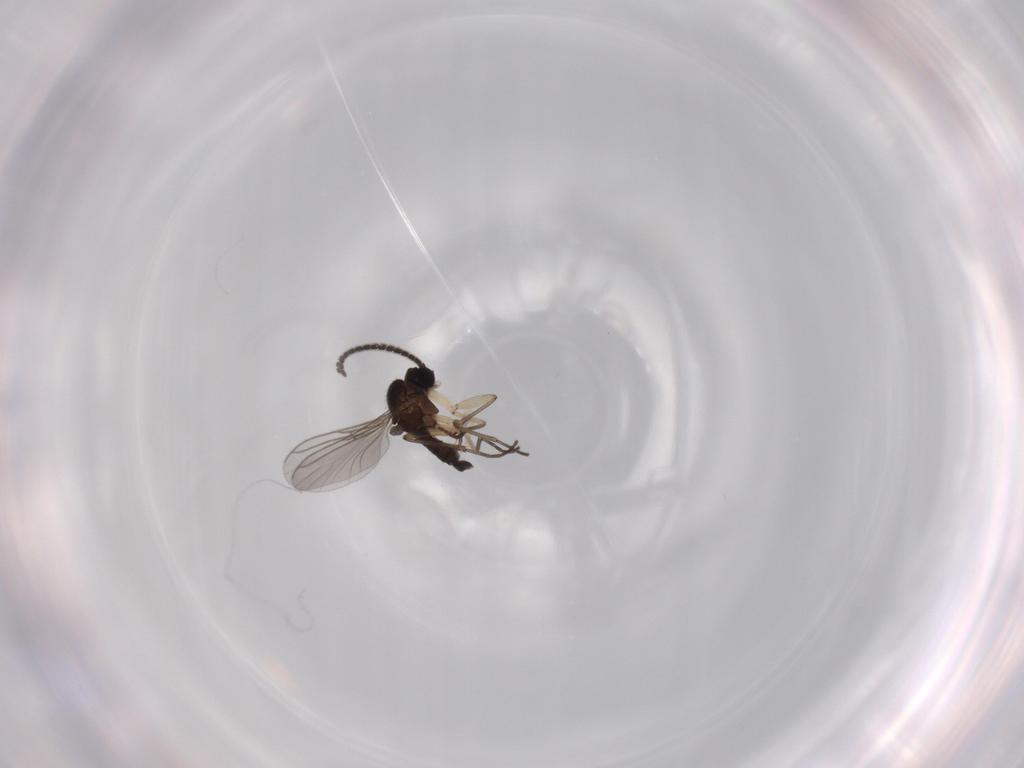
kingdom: Animalia
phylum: Arthropoda
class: Insecta
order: Diptera
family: Sciaridae
